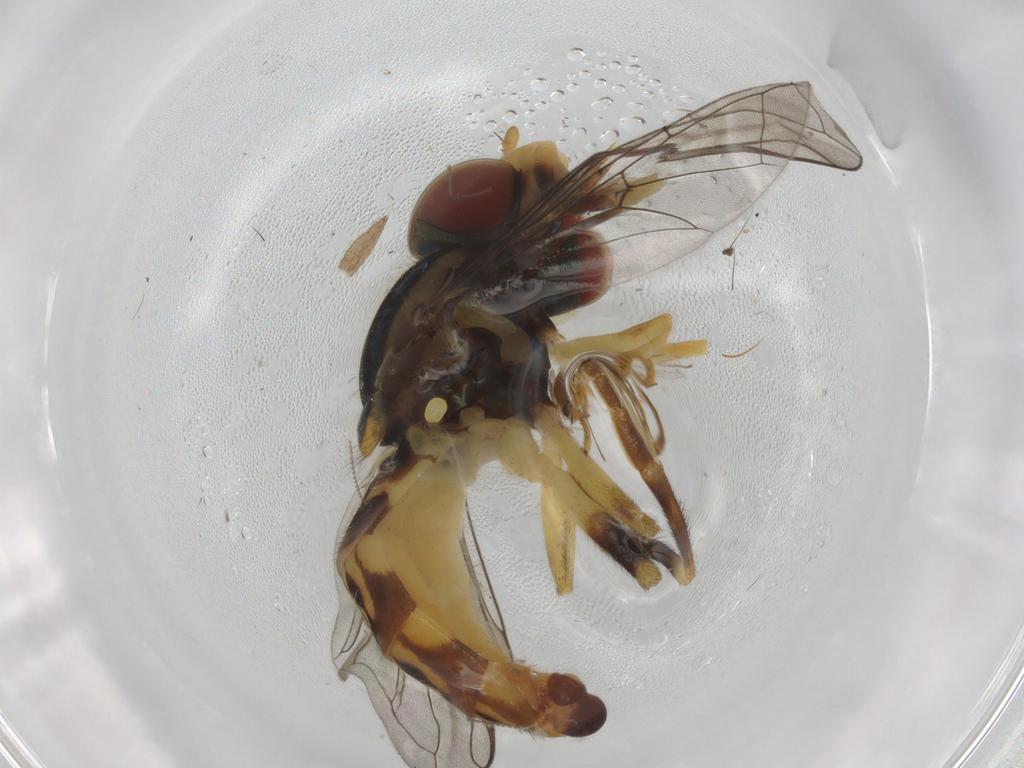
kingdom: Animalia
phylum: Arthropoda
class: Insecta
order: Diptera
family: Syrphidae
